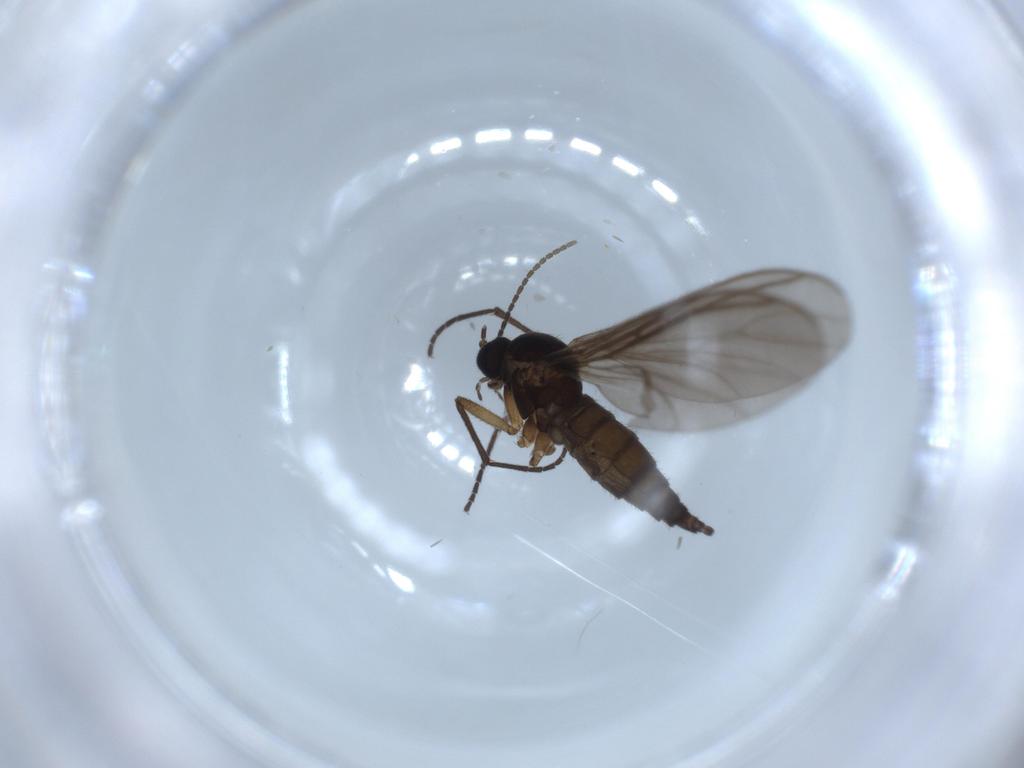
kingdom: Animalia
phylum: Arthropoda
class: Insecta
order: Diptera
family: Sciaridae
